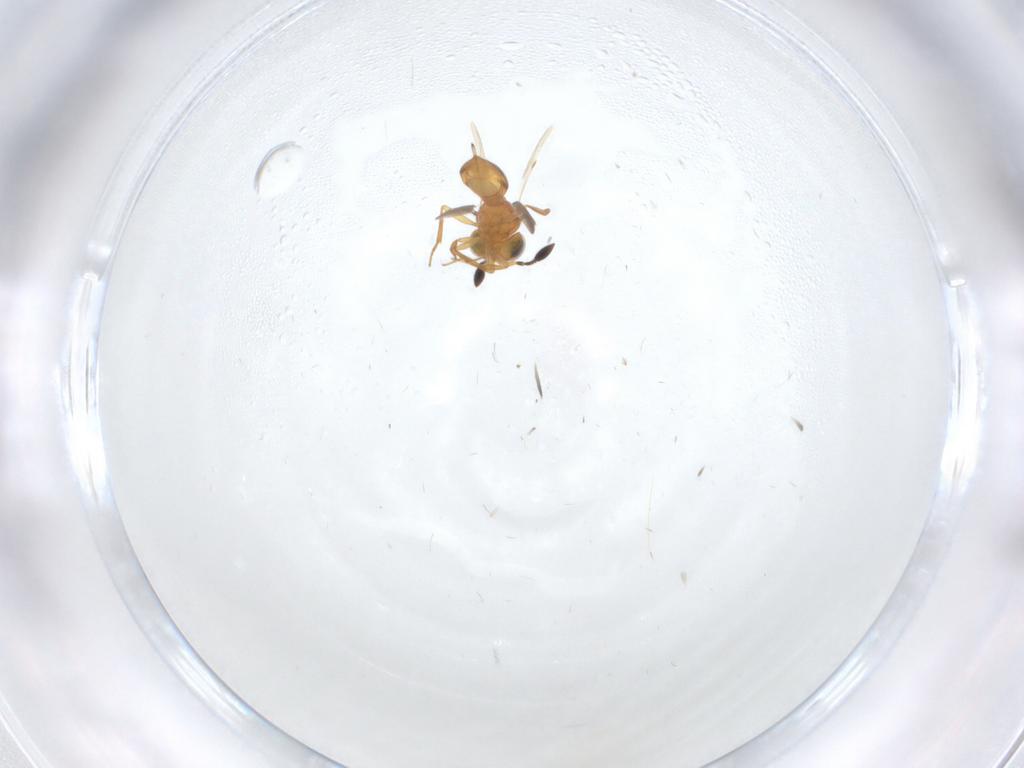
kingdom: Animalia
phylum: Arthropoda
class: Insecta
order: Hymenoptera
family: Scelionidae
